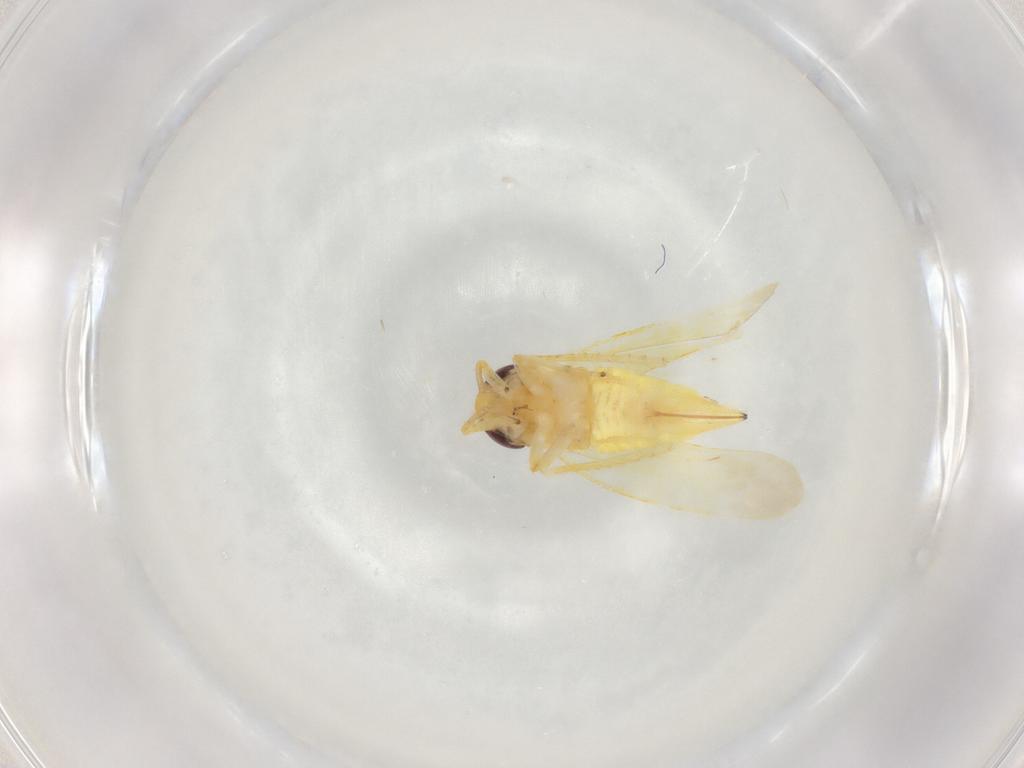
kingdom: Animalia
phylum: Arthropoda
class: Insecta
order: Hemiptera
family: Cicadellidae
